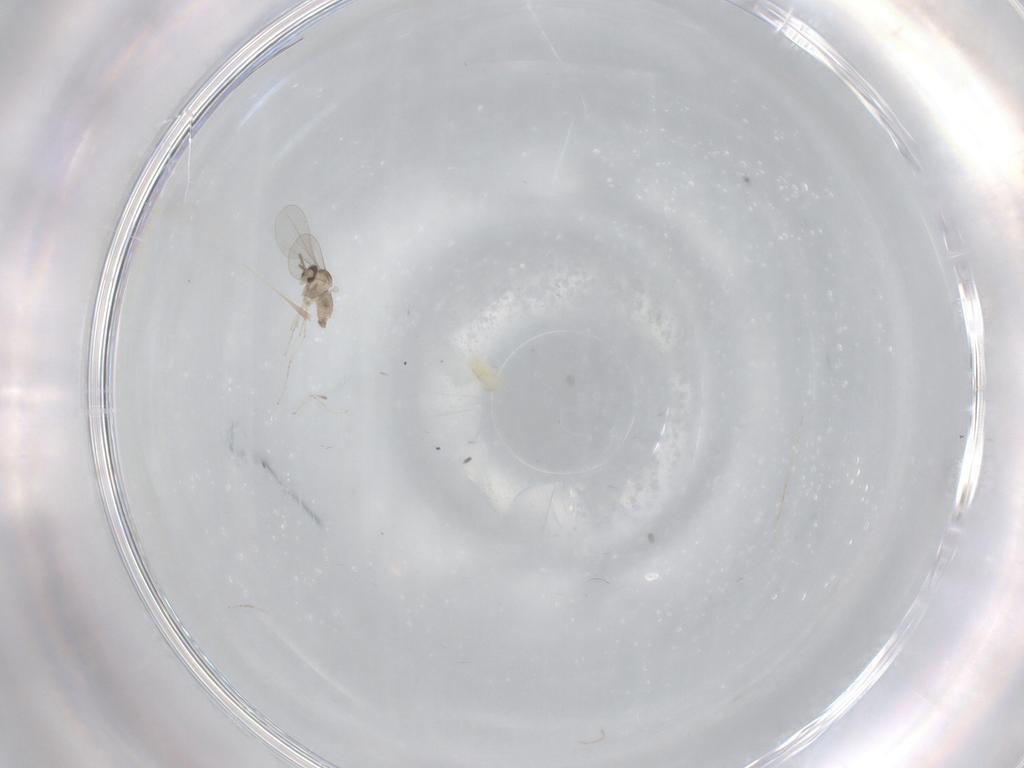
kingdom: Animalia
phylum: Arthropoda
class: Insecta
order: Diptera
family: Cecidomyiidae
